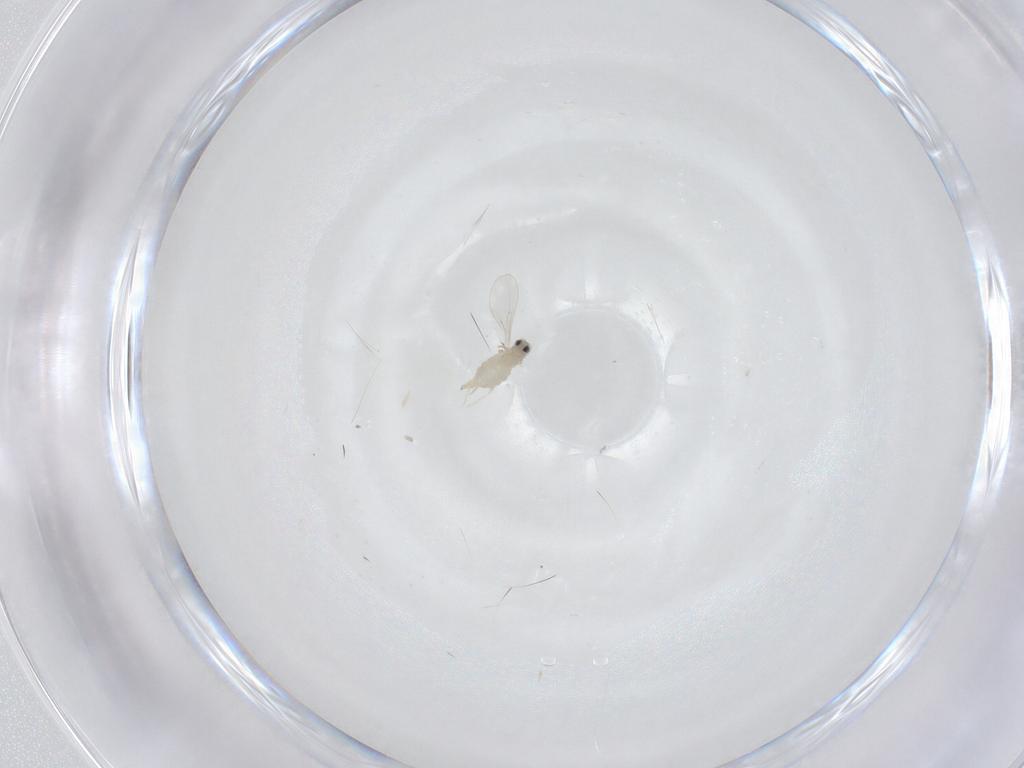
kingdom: Animalia
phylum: Arthropoda
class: Insecta
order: Diptera
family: Cecidomyiidae
